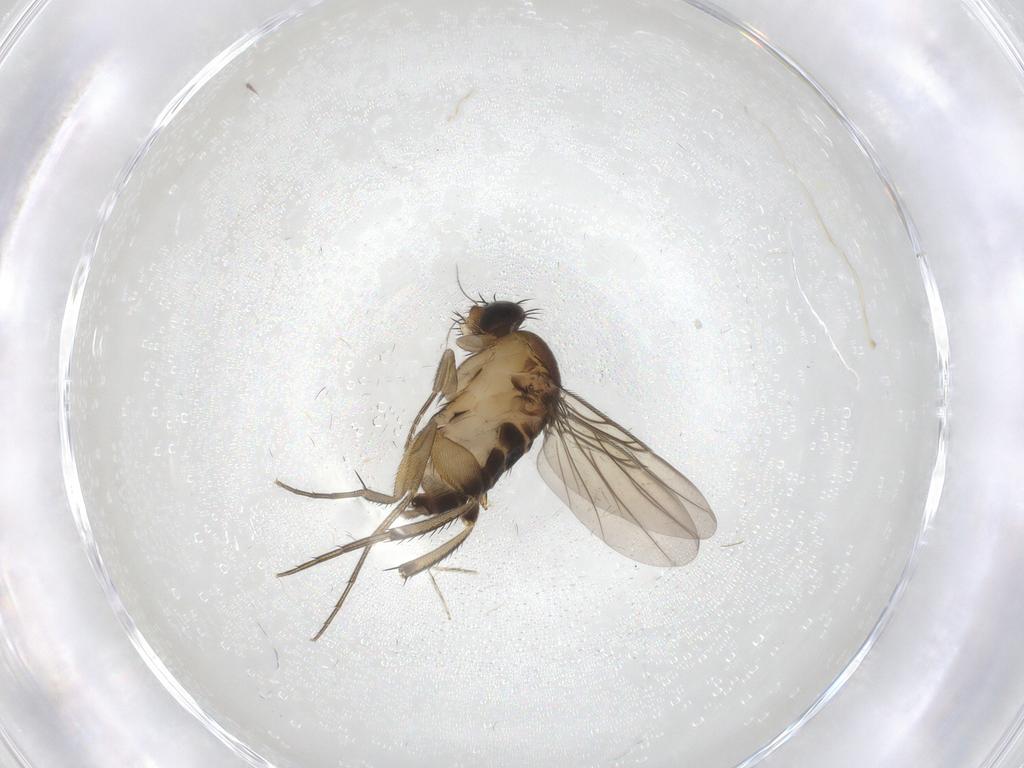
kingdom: Animalia
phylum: Arthropoda
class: Insecta
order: Diptera
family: Phoridae
